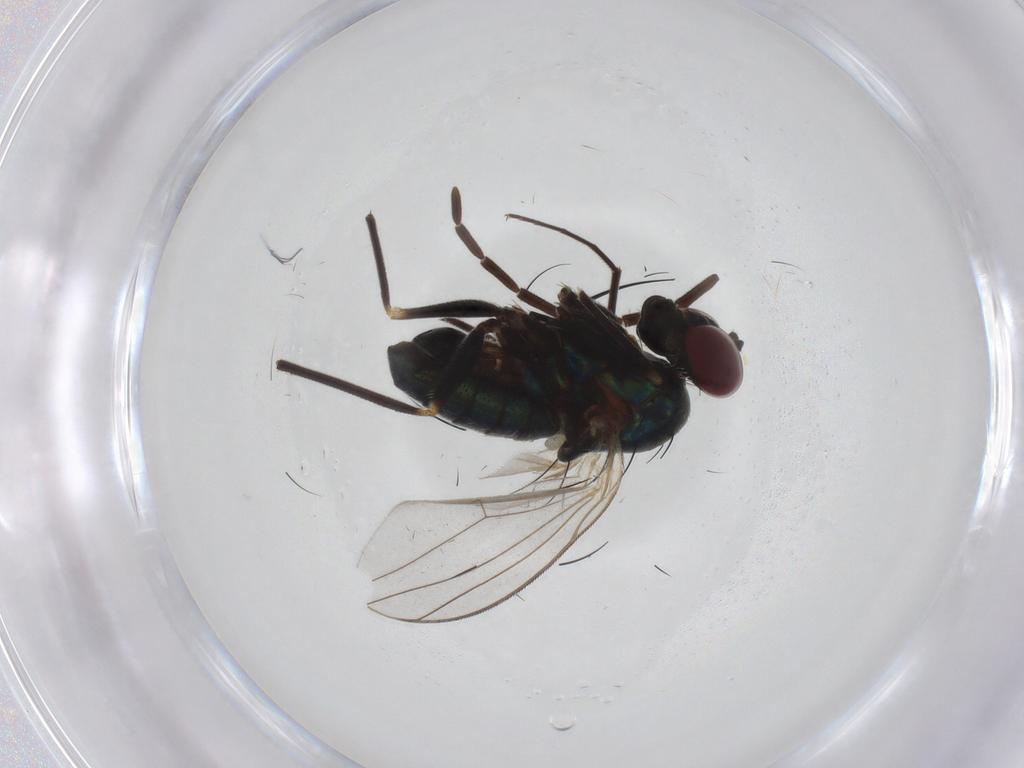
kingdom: Animalia
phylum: Arthropoda
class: Insecta
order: Diptera
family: Dolichopodidae
